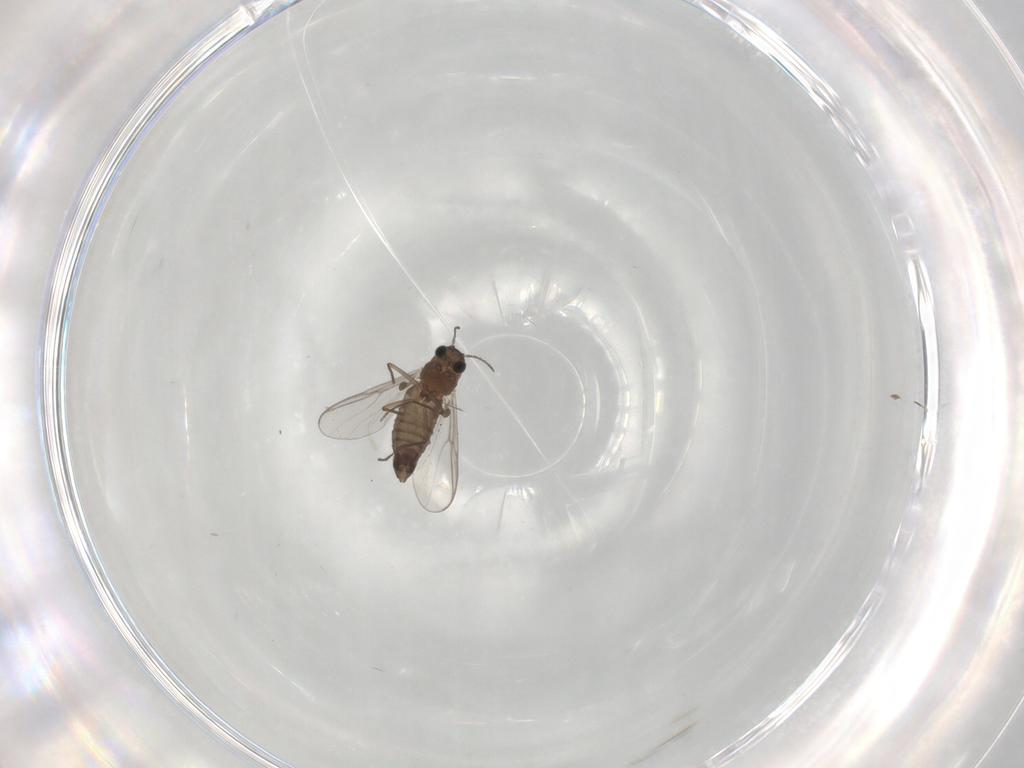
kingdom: Animalia
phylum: Arthropoda
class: Insecta
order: Diptera
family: Chironomidae
